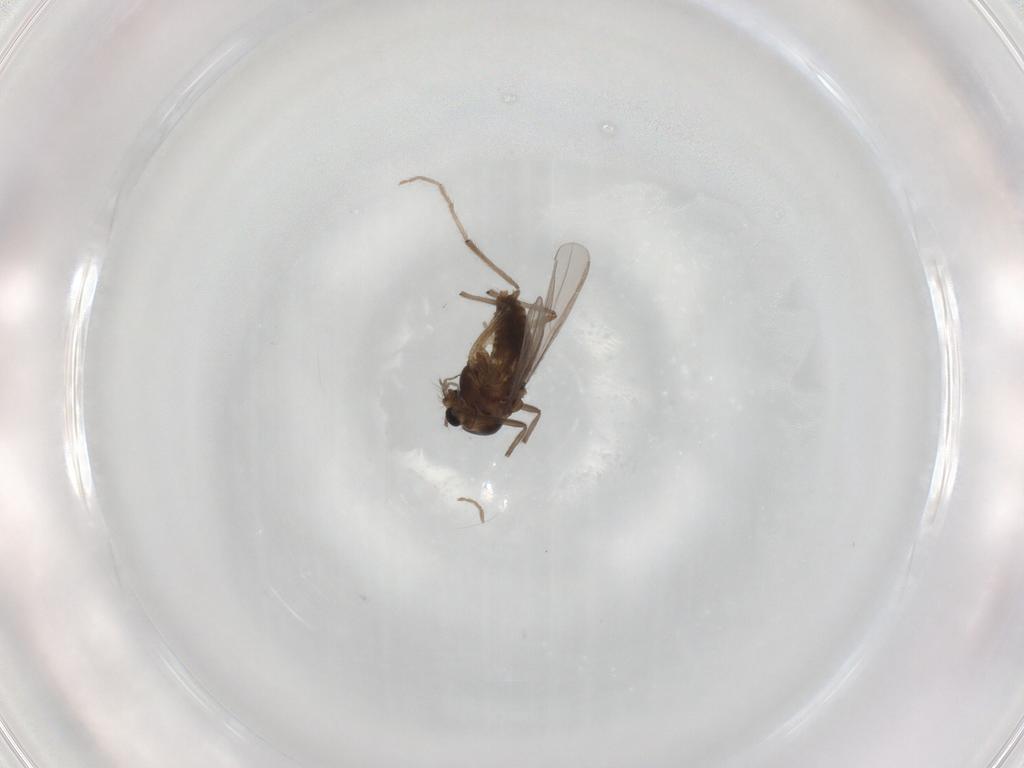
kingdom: Animalia
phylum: Arthropoda
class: Insecta
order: Diptera
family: Chironomidae
